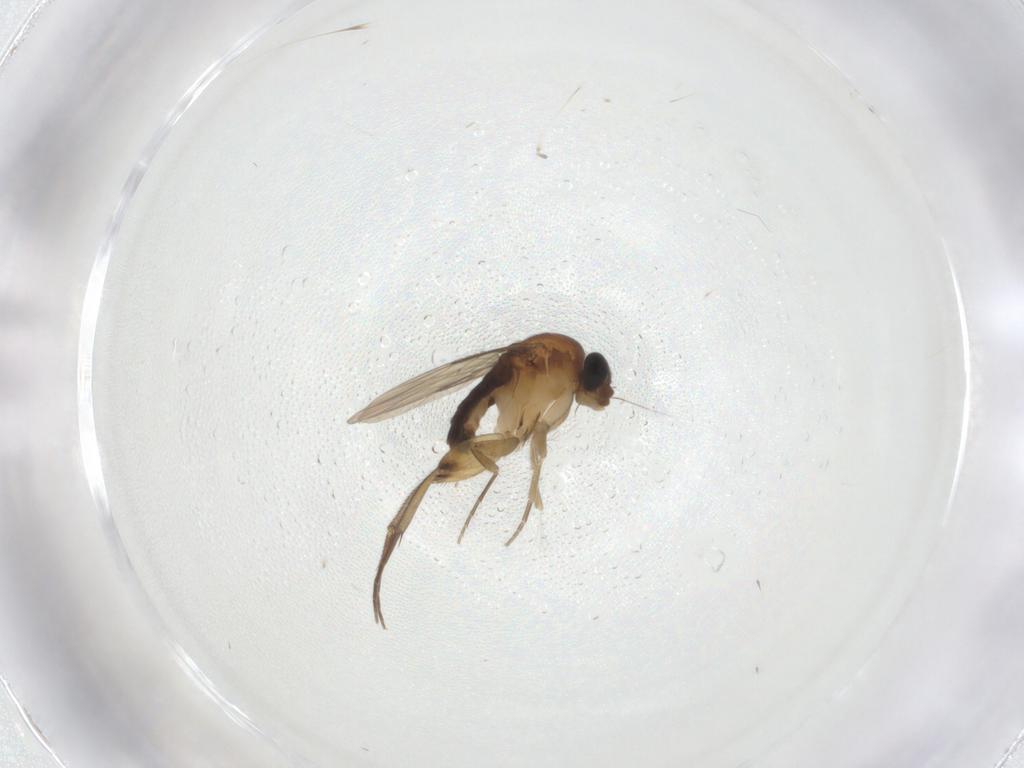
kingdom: Animalia
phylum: Arthropoda
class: Insecta
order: Diptera
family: Phoridae
